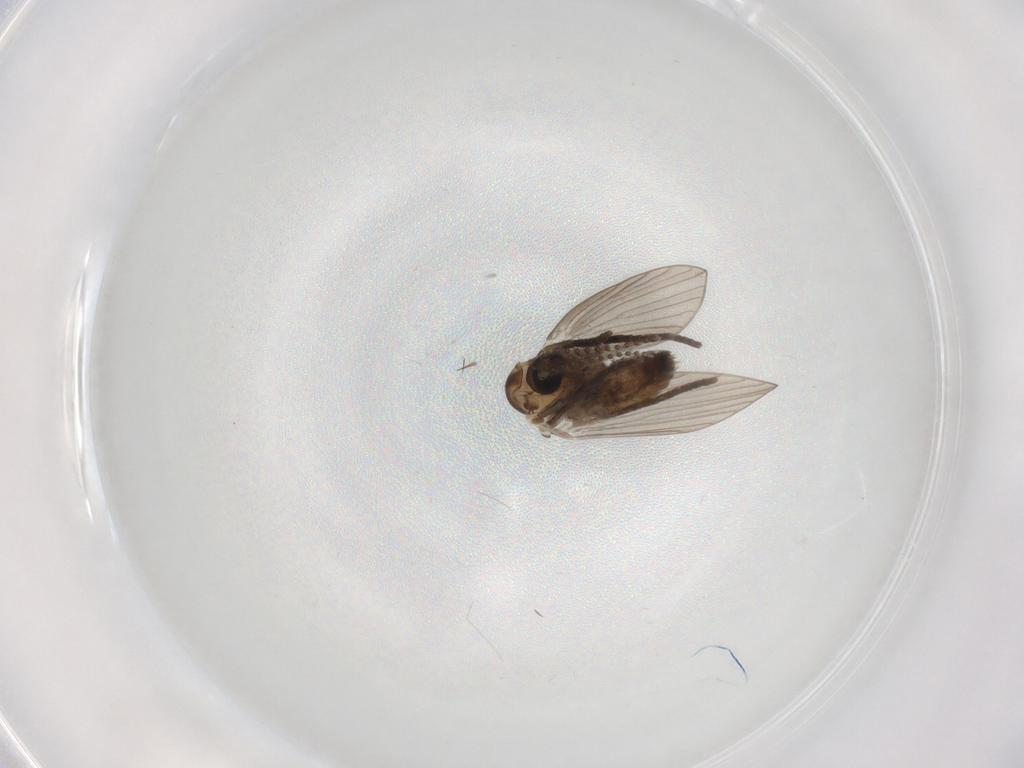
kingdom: Animalia
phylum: Arthropoda
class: Insecta
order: Diptera
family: Psychodidae
